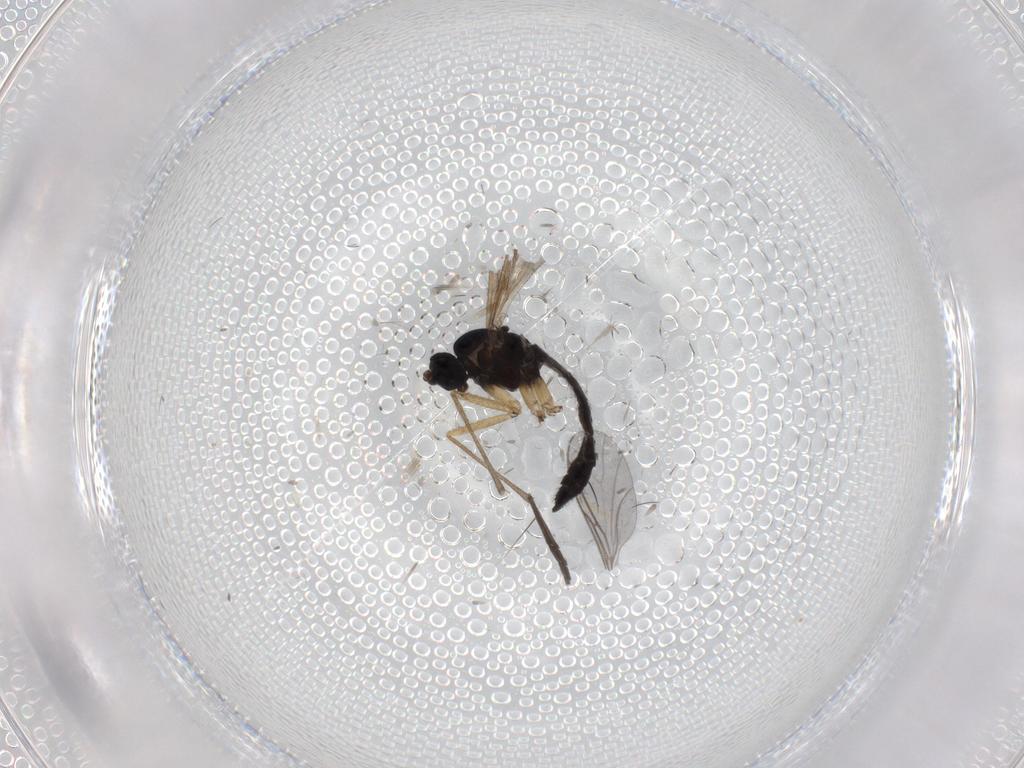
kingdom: Animalia
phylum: Arthropoda
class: Insecta
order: Diptera
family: Sciaridae
